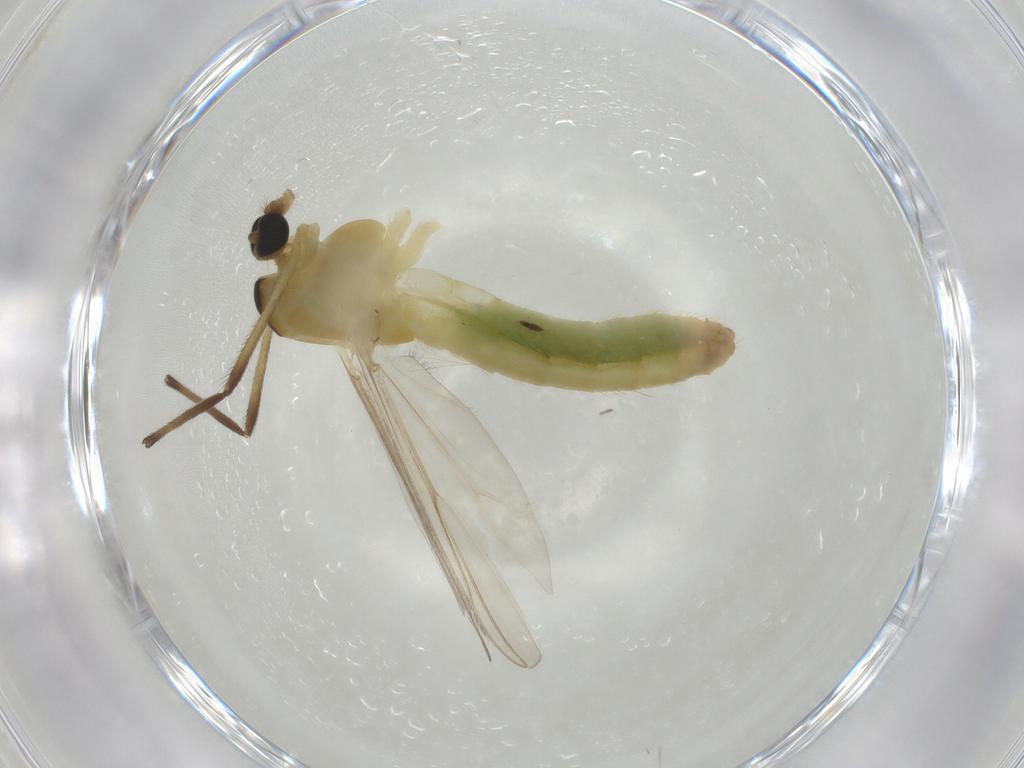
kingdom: Animalia
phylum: Arthropoda
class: Insecta
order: Diptera
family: Chironomidae
